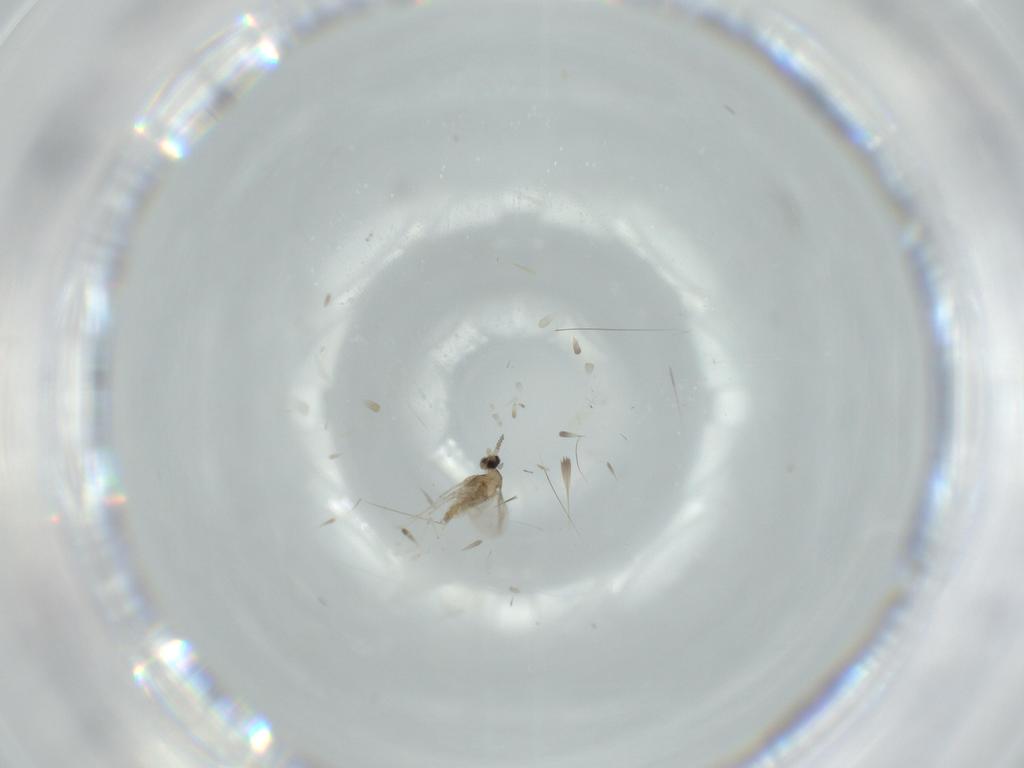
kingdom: Animalia
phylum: Arthropoda
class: Insecta
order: Diptera
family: Cecidomyiidae
